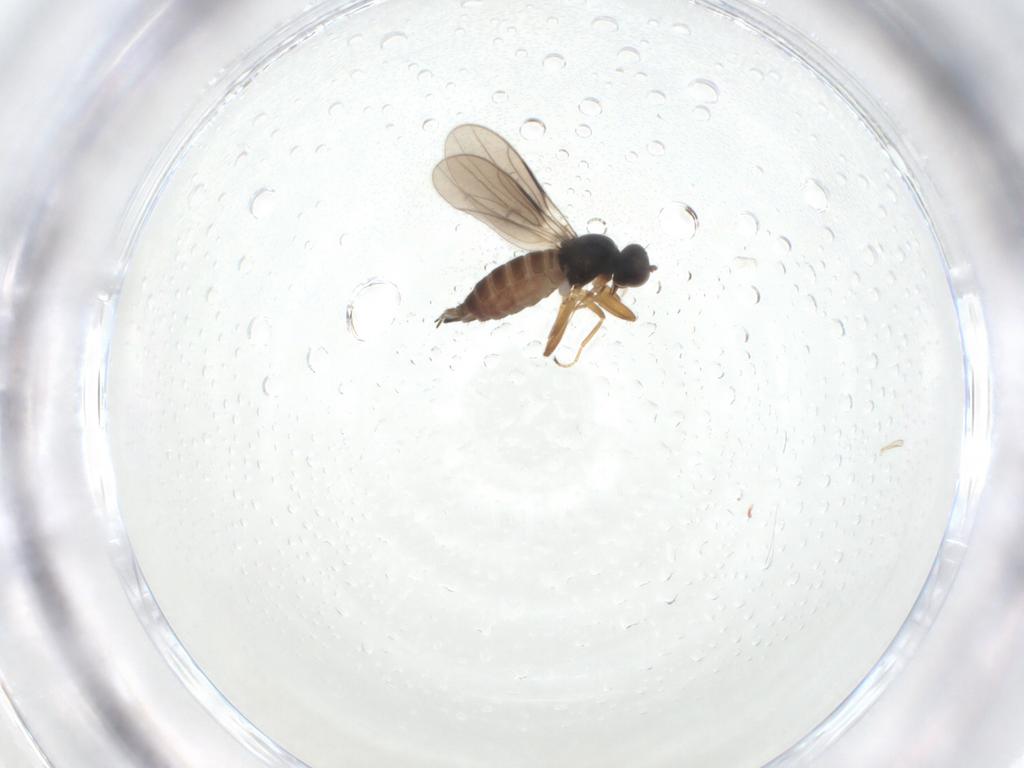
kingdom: Animalia
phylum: Arthropoda
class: Insecta
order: Diptera
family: Hybotidae
